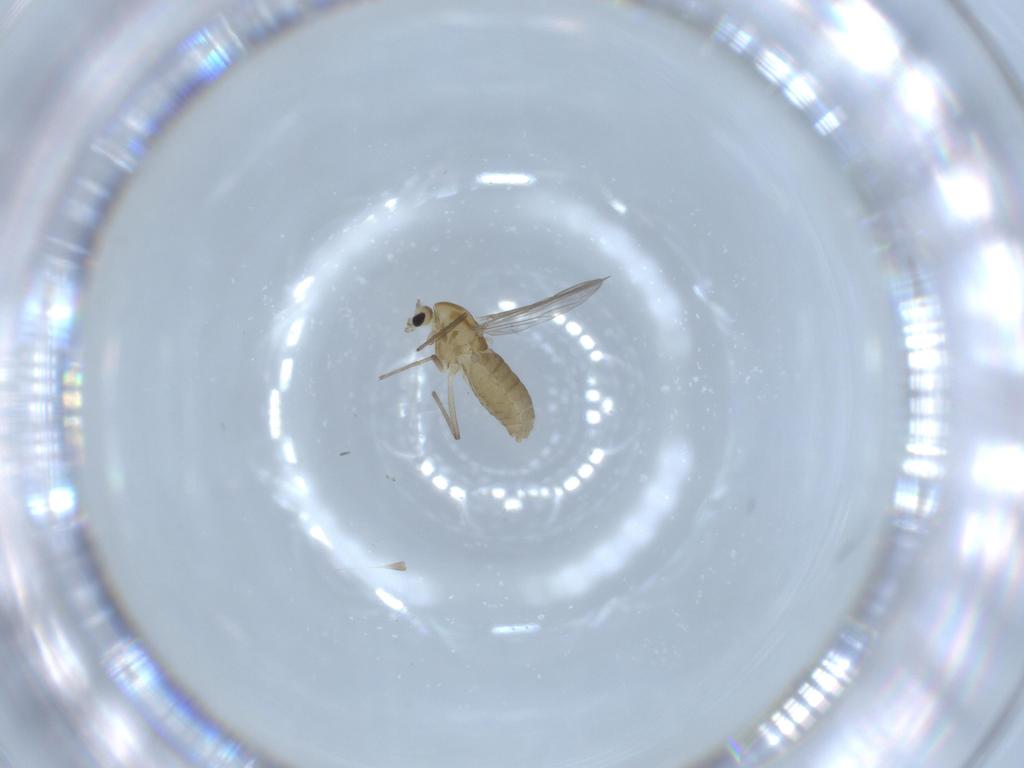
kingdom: Animalia
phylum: Arthropoda
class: Insecta
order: Diptera
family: Chironomidae
